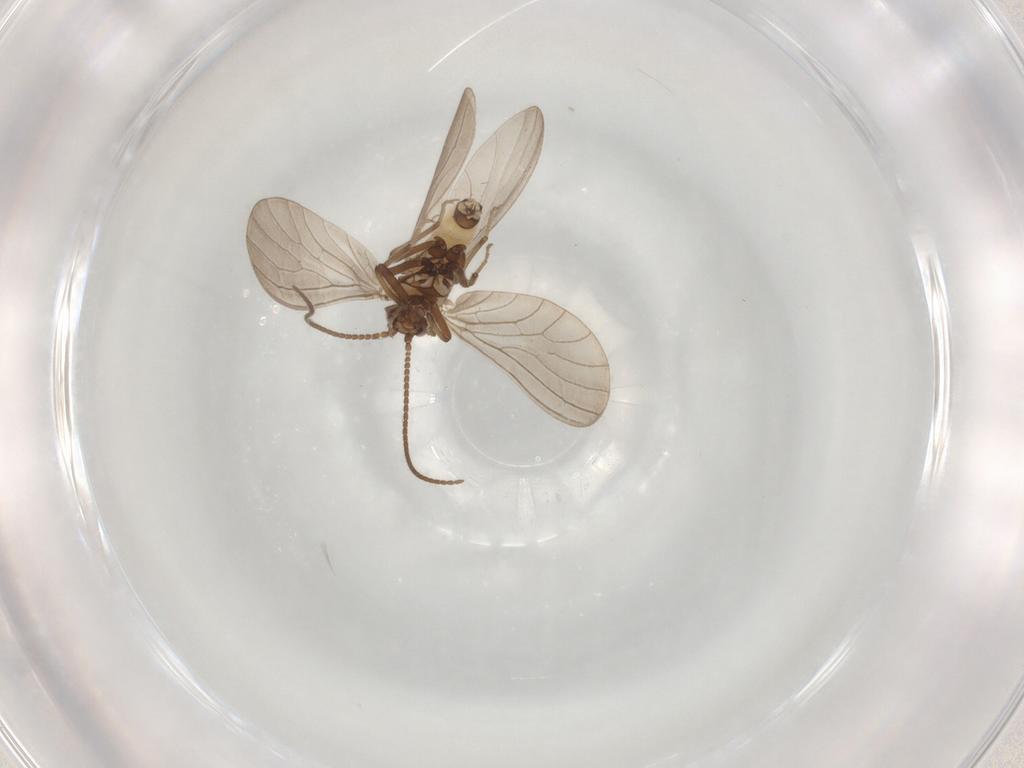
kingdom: Animalia
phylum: Arthropoda
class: Insecta
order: Neuroptera
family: Coniopterygidae
